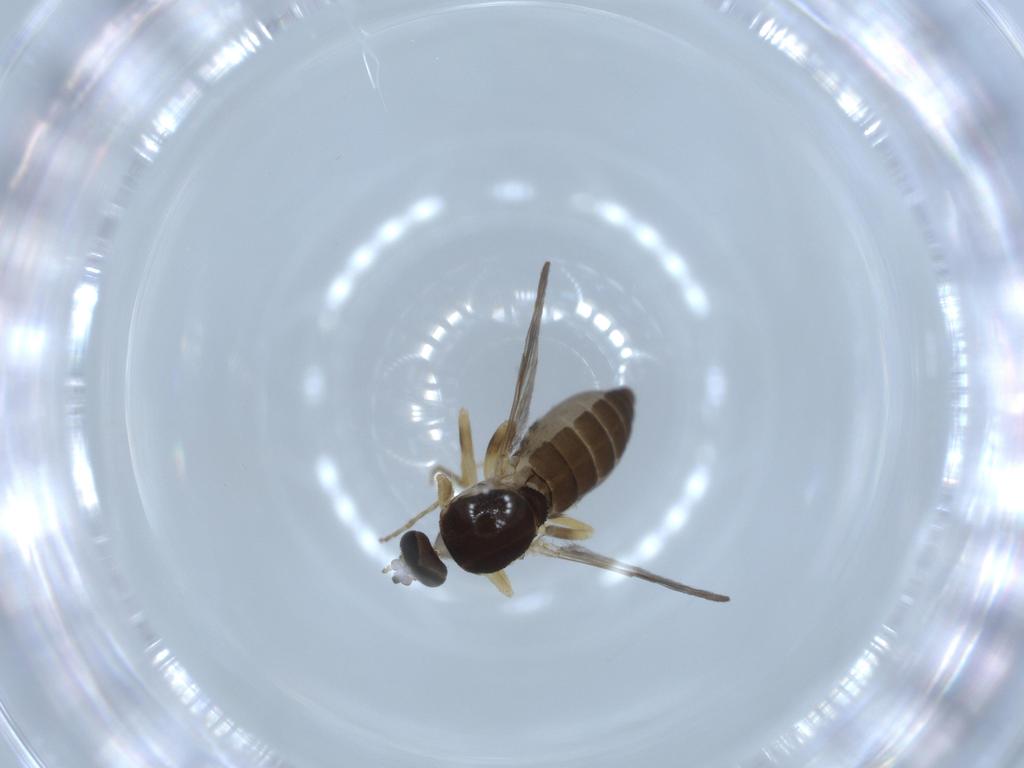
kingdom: Animalia
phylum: Arthropoda
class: Insecta
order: Diptera
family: Ceratopogonidae
